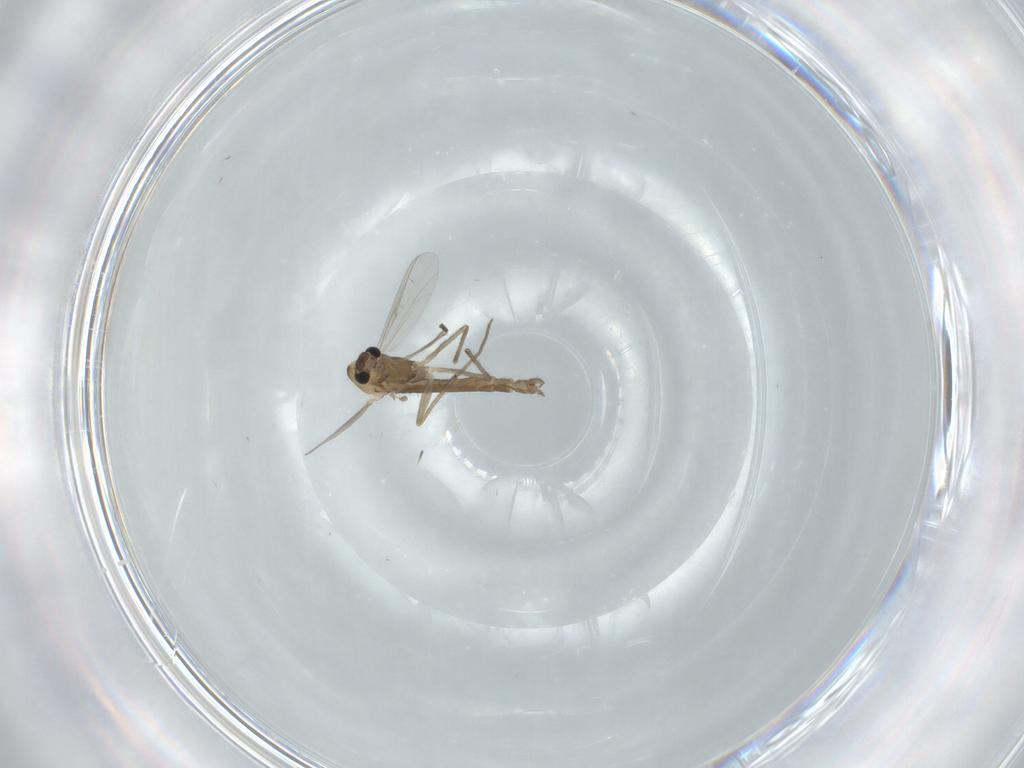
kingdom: Animalia
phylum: Arthropoda
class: Insecta
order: Diptera
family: Chironomidae
